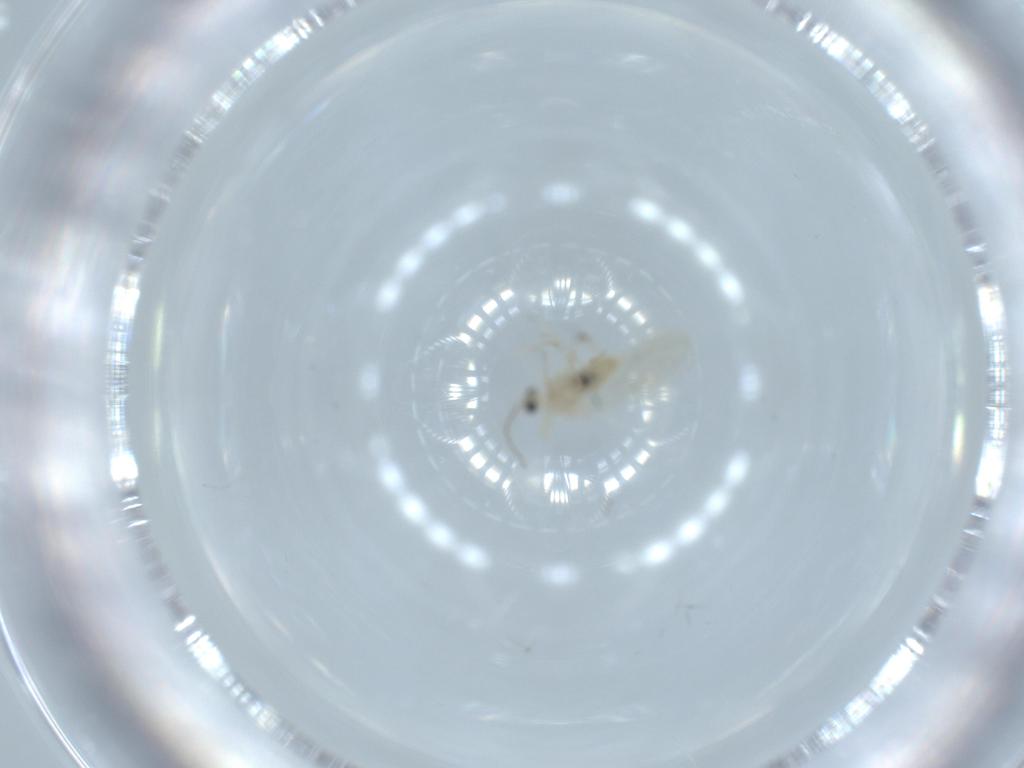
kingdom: Animalia
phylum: Arthropoda
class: Insecta
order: Diptera
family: Cecidomyiidae
